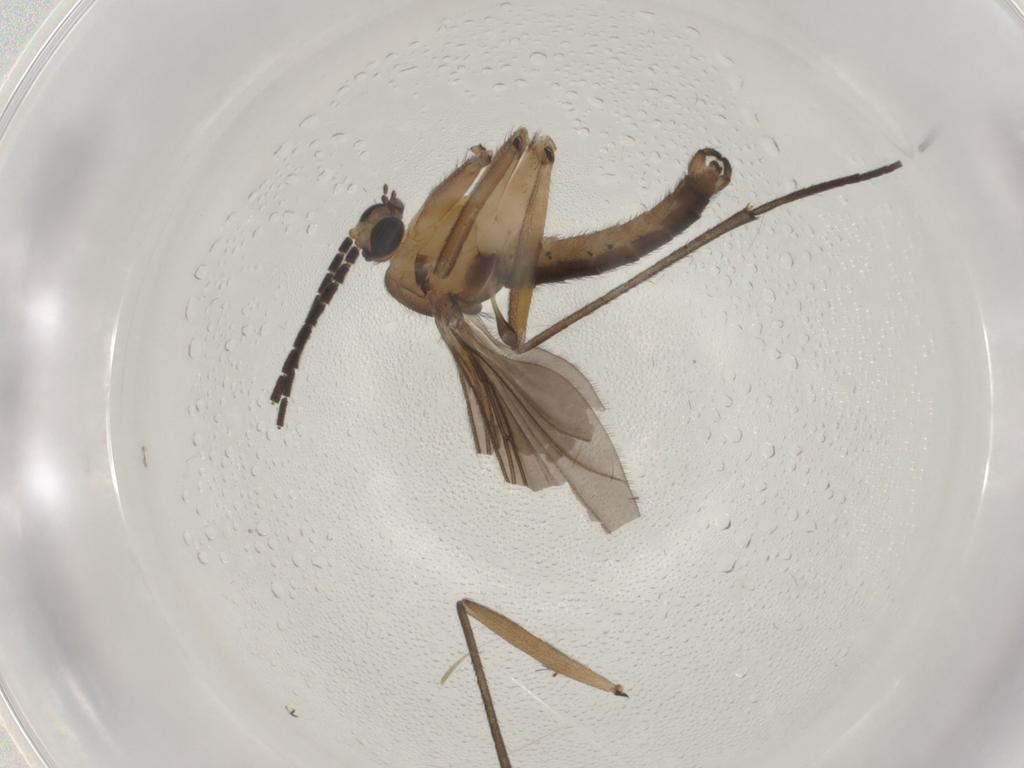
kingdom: Animalia
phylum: Arthropoda
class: Insecta
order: Diptera
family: Sciaridae
